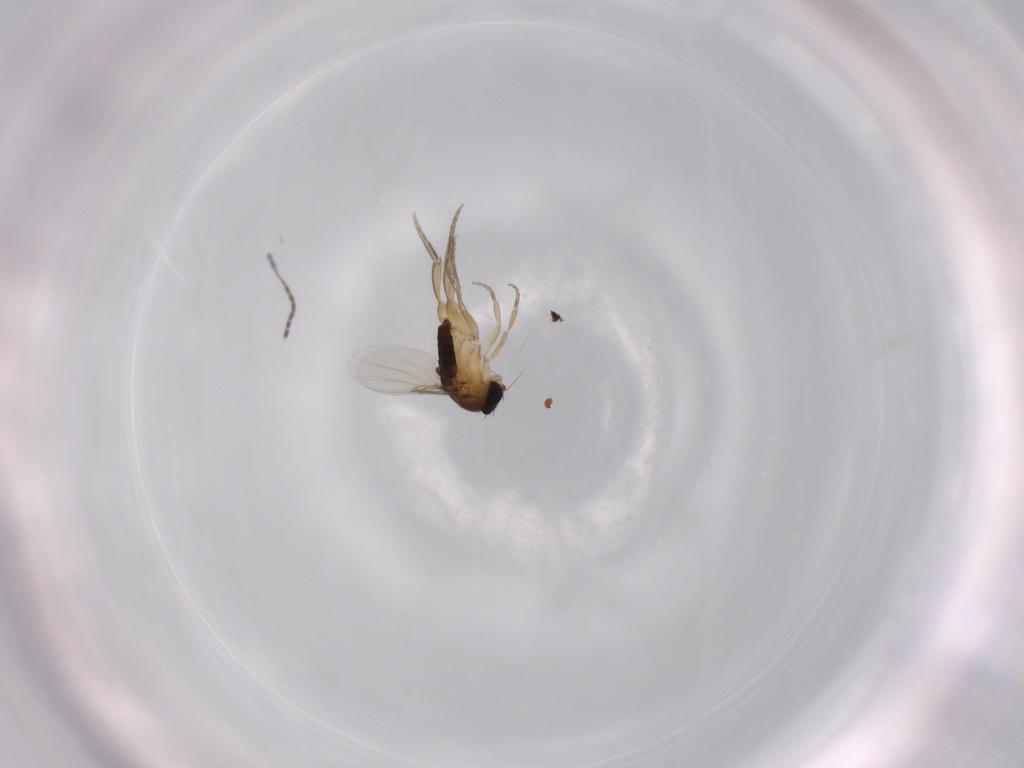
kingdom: Animalia
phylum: Arthropoda
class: Insecta
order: Diptera
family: Phoridae
